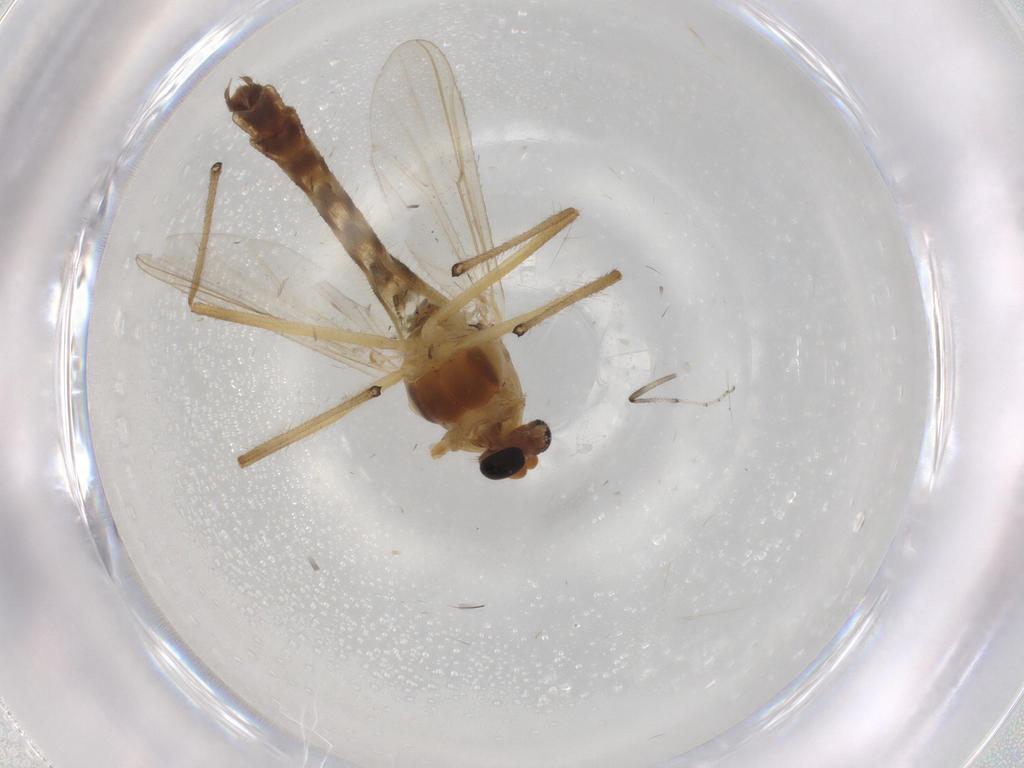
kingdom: Animalia
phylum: Arthropoda
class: Insecta
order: Diptera
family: Chironomidae
